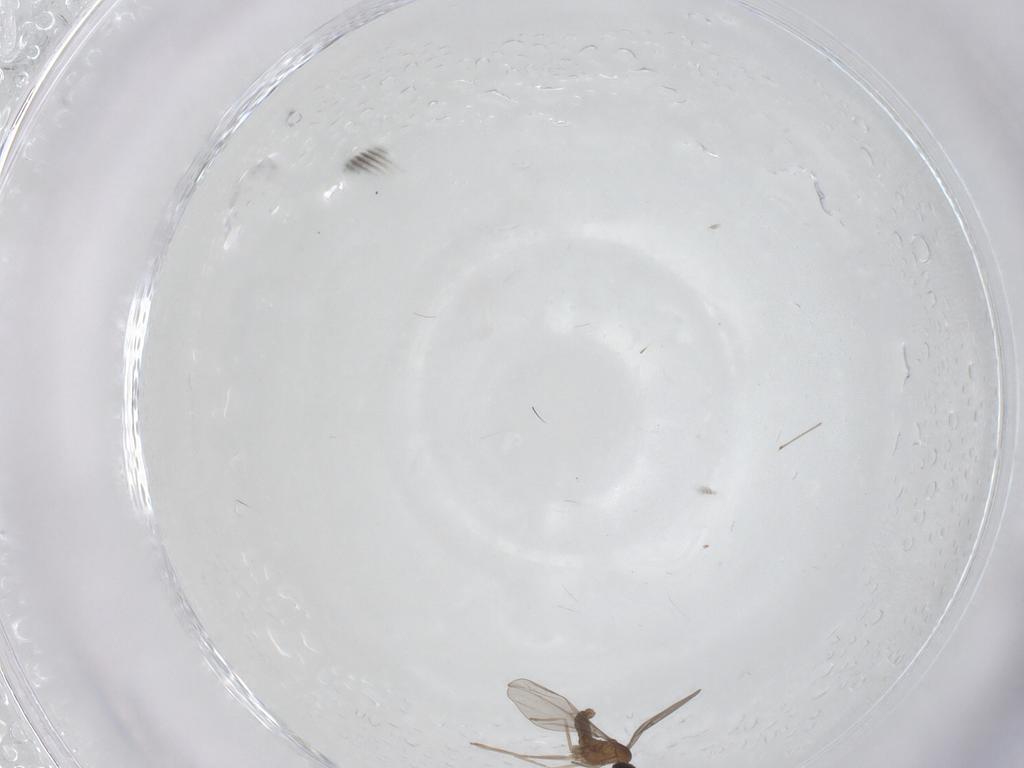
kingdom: Animalia
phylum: Arthropoda
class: Insecta
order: Diptera
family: Cecidomyiidae
